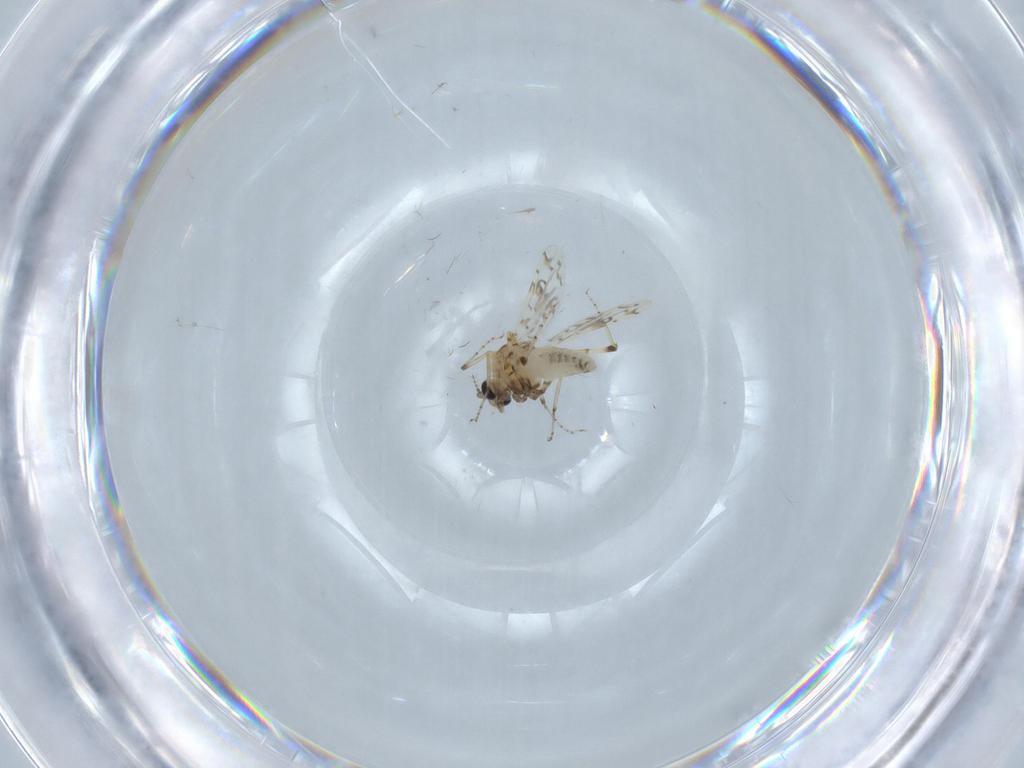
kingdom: Animalia
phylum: Arthropoda
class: Insecta
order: Diptera
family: Ceratopogonidae
